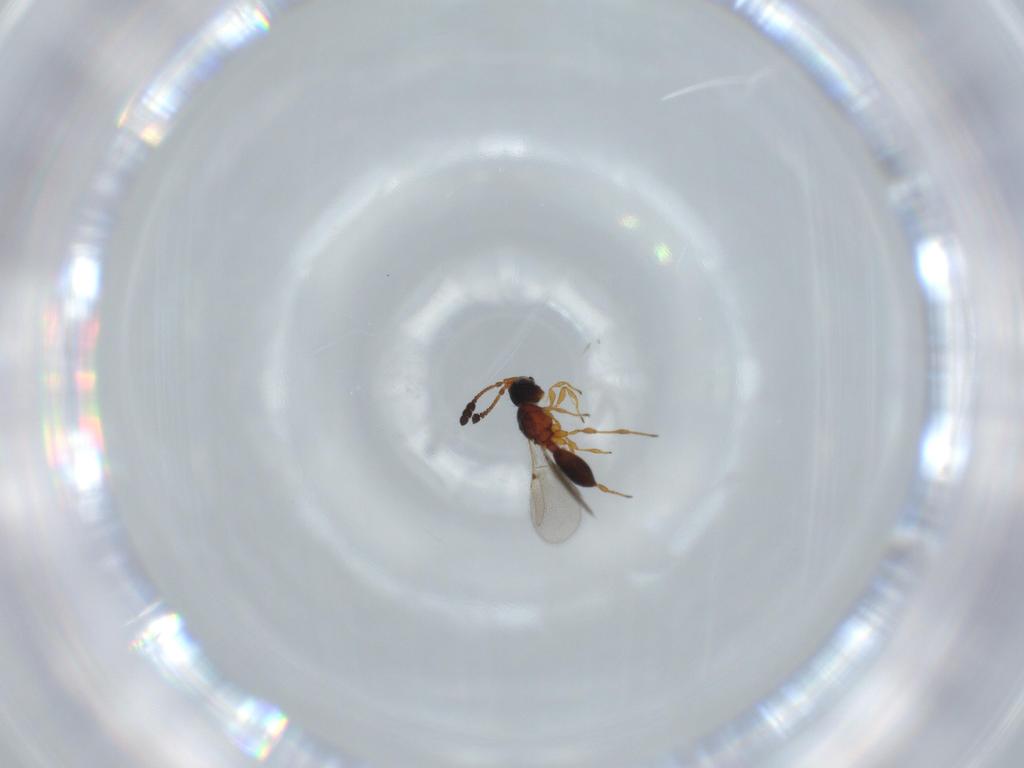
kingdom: Animalia
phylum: Arthropoda
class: Insecta
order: Hymenoptera
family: Diapriidae
